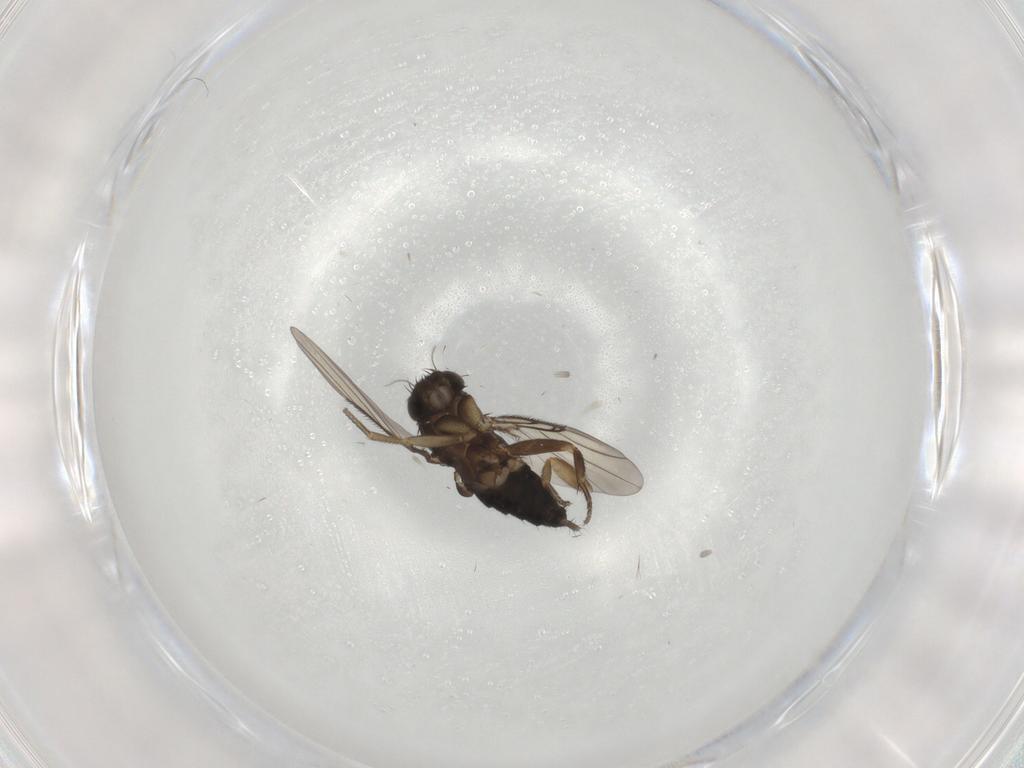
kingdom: Animalia
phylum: Arthropoda
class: Insecta
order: Diptera
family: Phoridae
